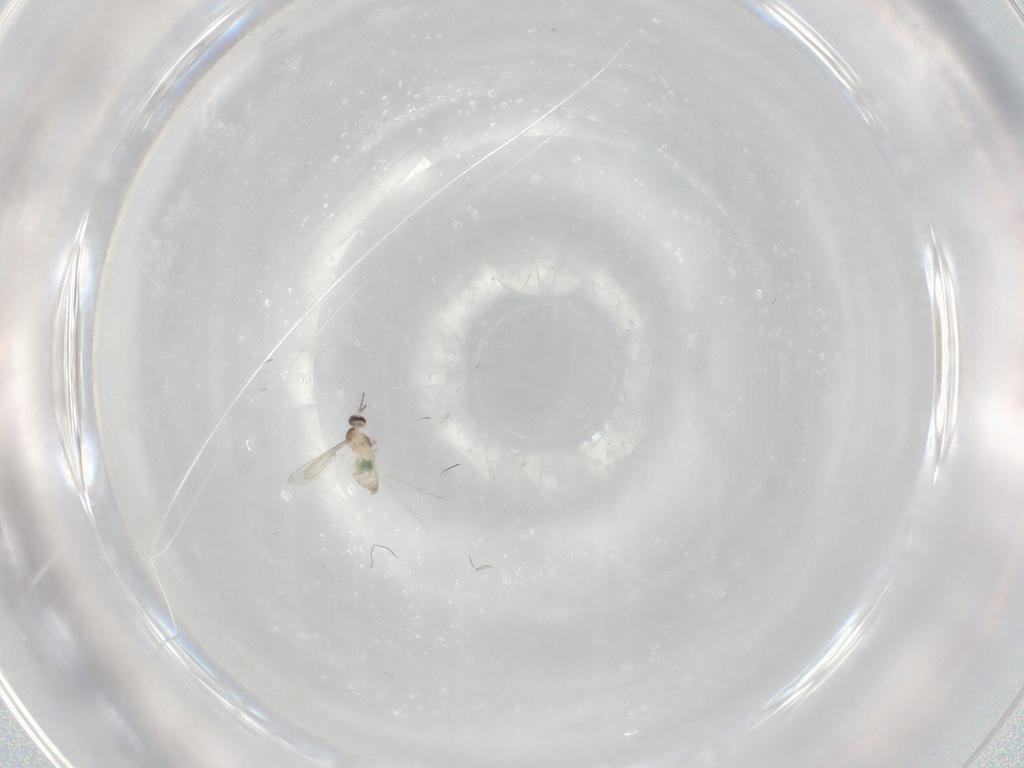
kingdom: Animalia
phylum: Arthropoda
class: Insecta
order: Diptera
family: Cecidomyiidae
